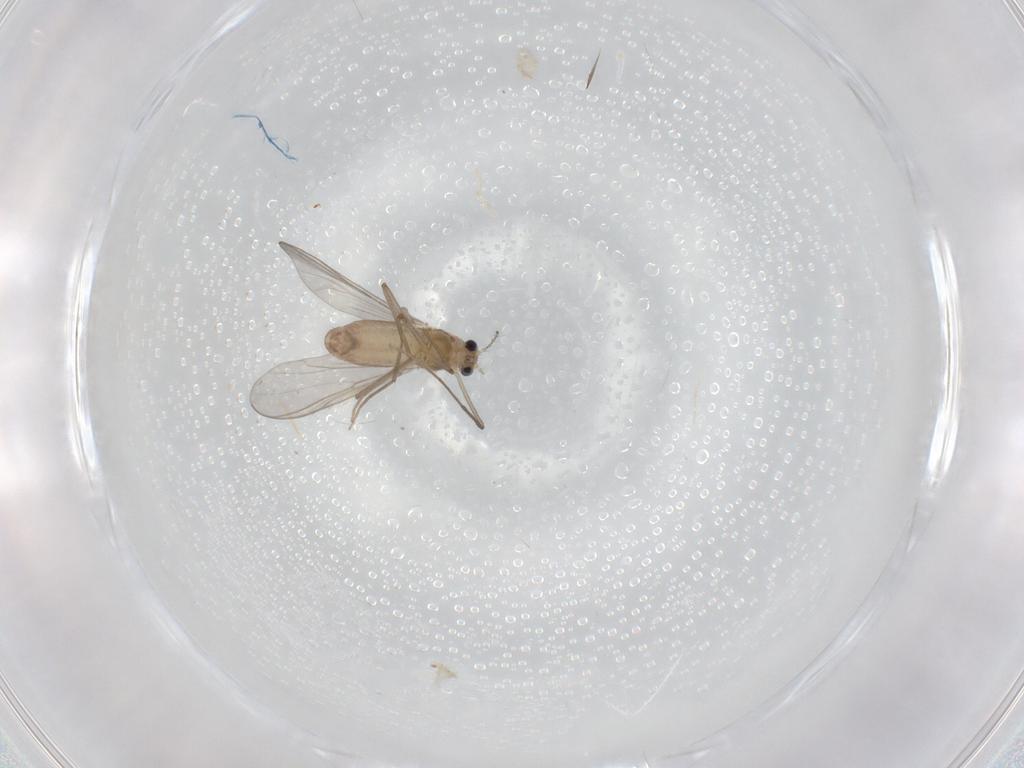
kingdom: Animalia
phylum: Arthropoda
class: Insecta
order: Diptera
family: Chironomidae
